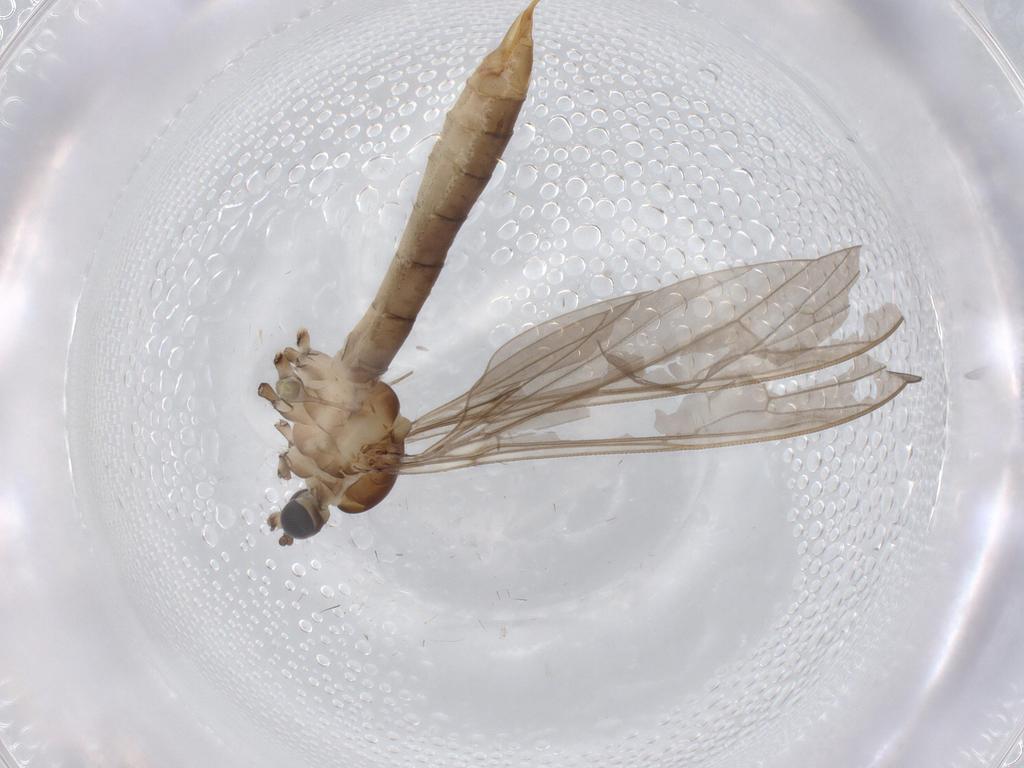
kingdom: Animalia
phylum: Arthropoda
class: Insecta
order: Diptera
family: Limoniidae
